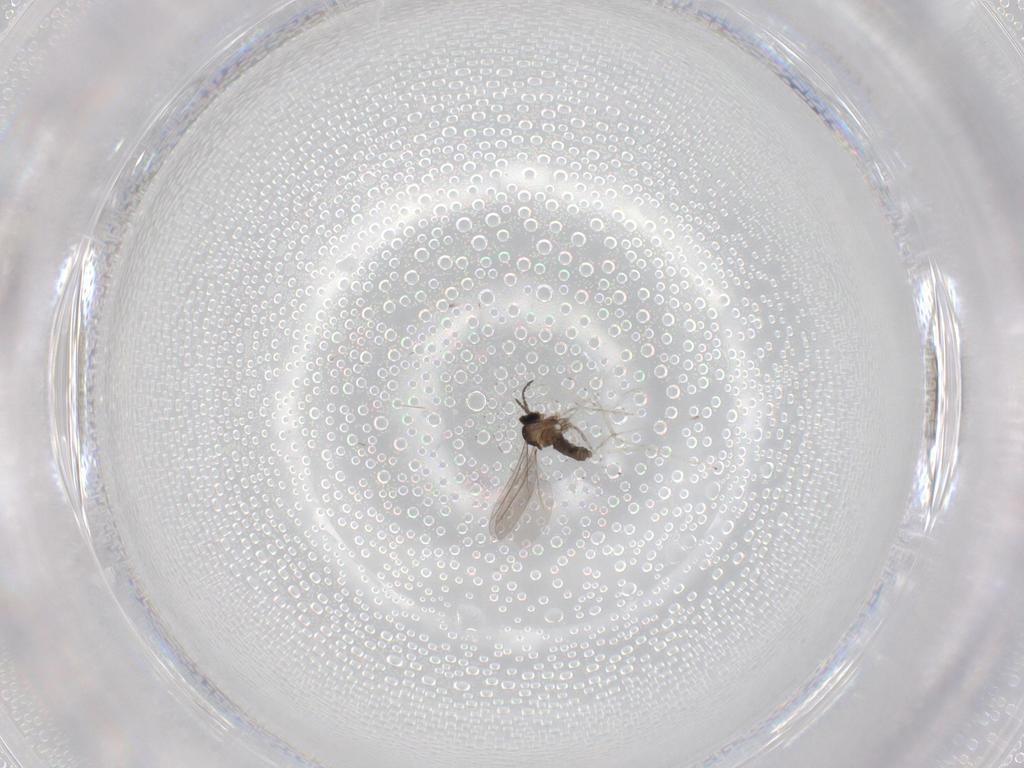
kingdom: Animalia
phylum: Arthropoda
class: Insecta
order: Diptera
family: Cecidomyiidae
